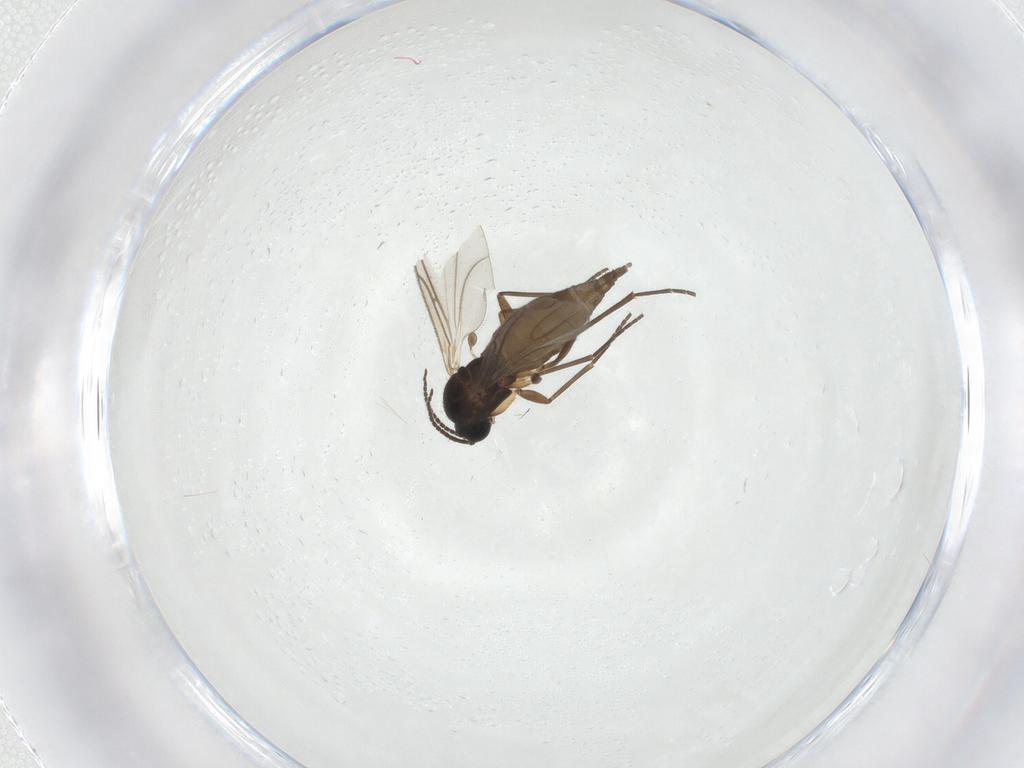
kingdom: Animalia
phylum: Arthropoda
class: Insecta
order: Diptera
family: Sciaridae
